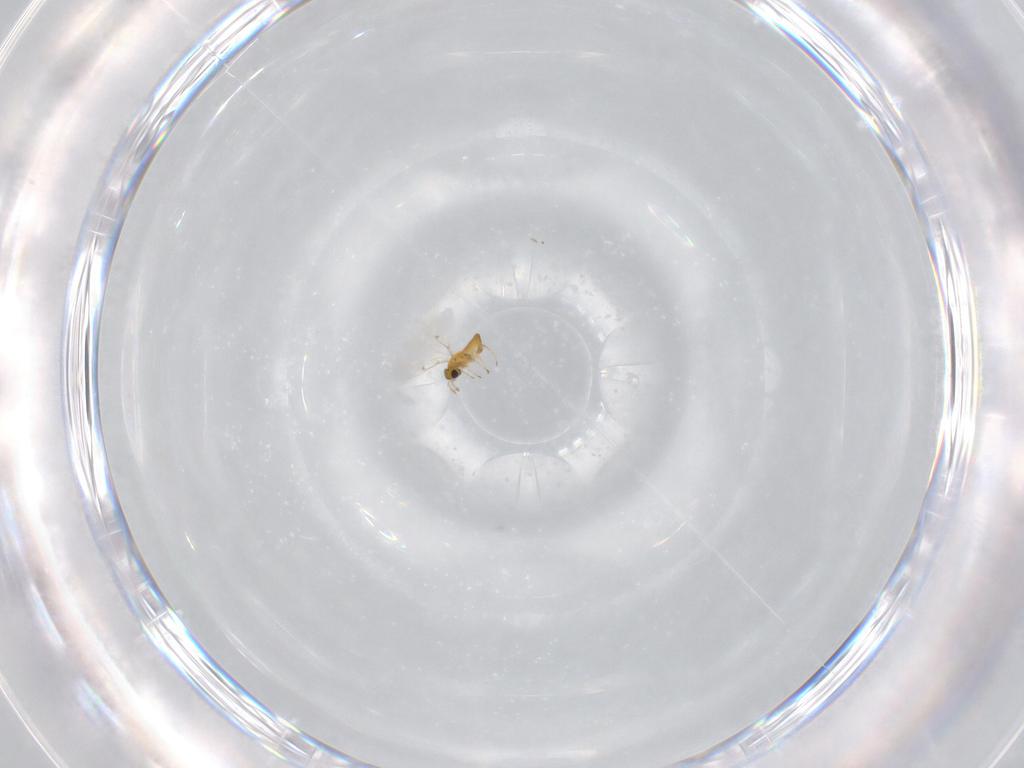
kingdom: Animalia
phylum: Arthropoda
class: Insecta
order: Hymenoptera
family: Trichogrammatidae
